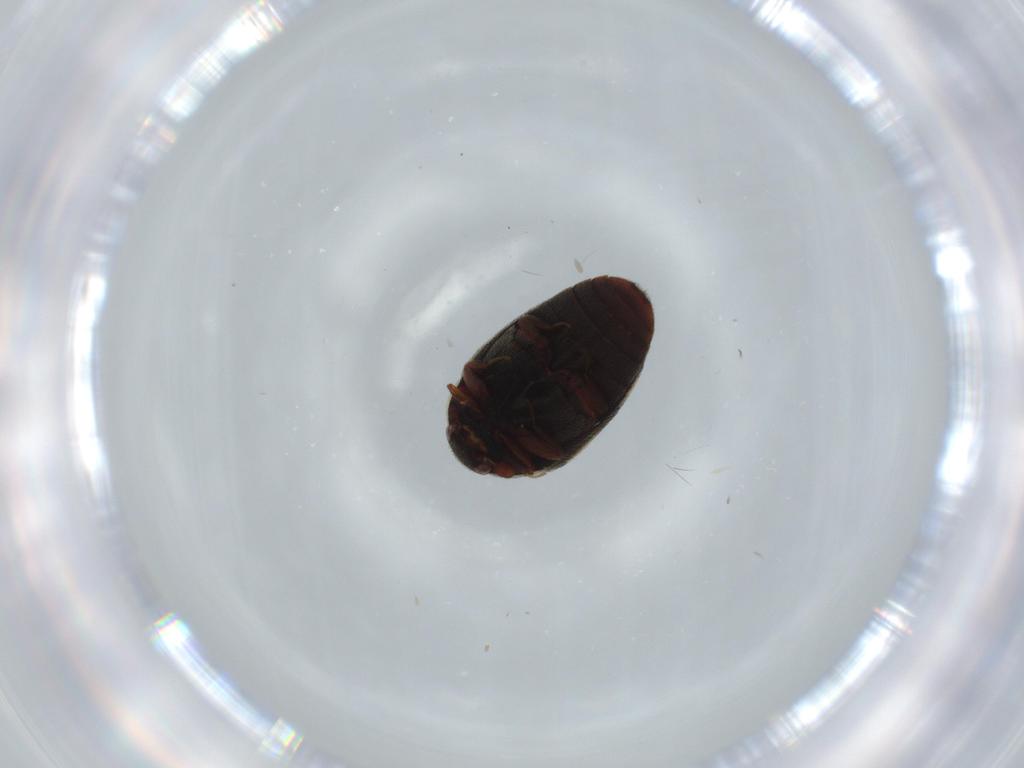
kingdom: Animalia
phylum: Arthropoda
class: Insecta
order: Coleoptera
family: Dermestidae
